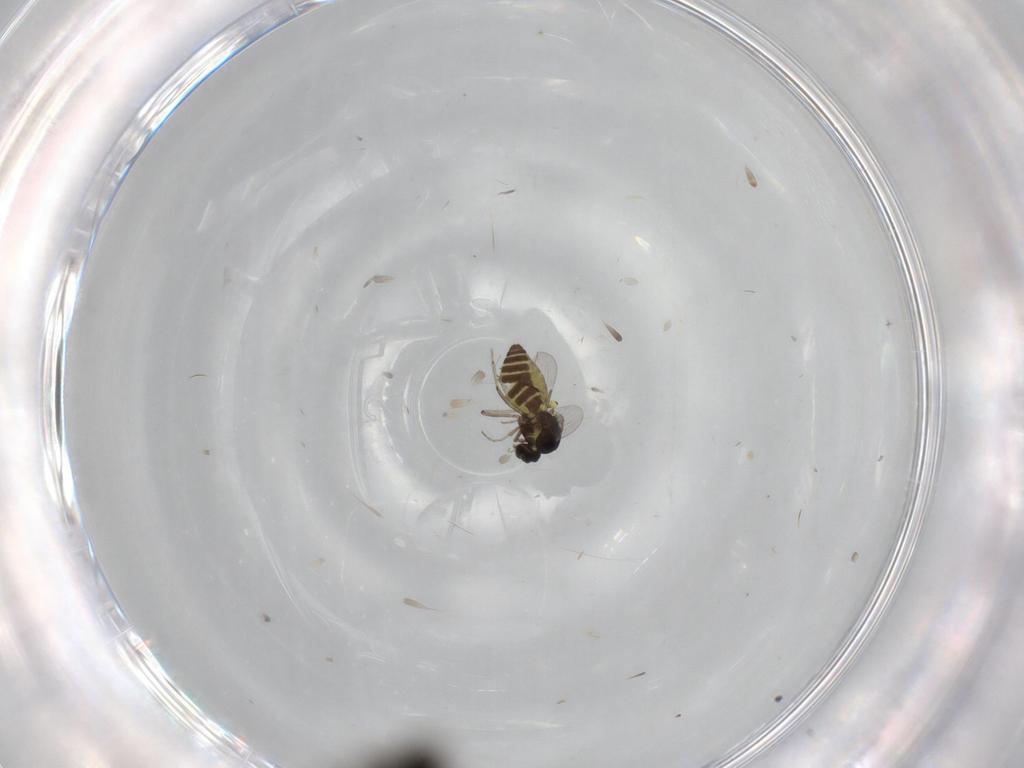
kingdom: Animalia
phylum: Arthropoda
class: Insecta
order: Diptera
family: Ceratopogonidae
